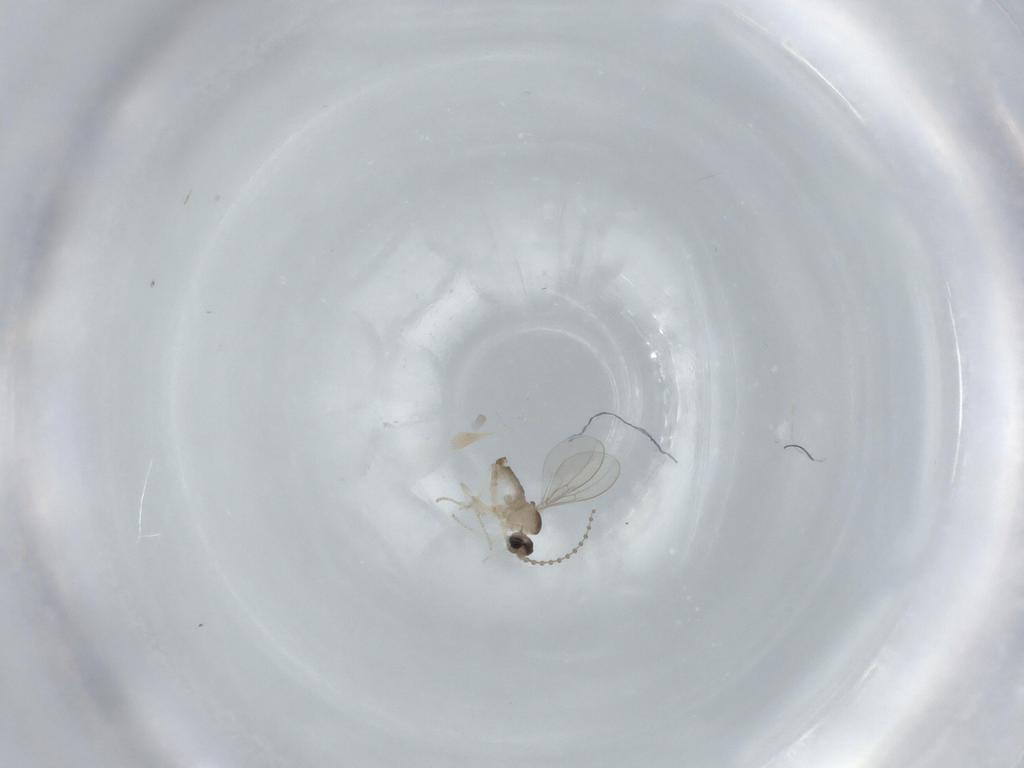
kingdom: Animalia
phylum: Arthropoda
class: Insecta
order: Diptera
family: Cecidomyiidae
